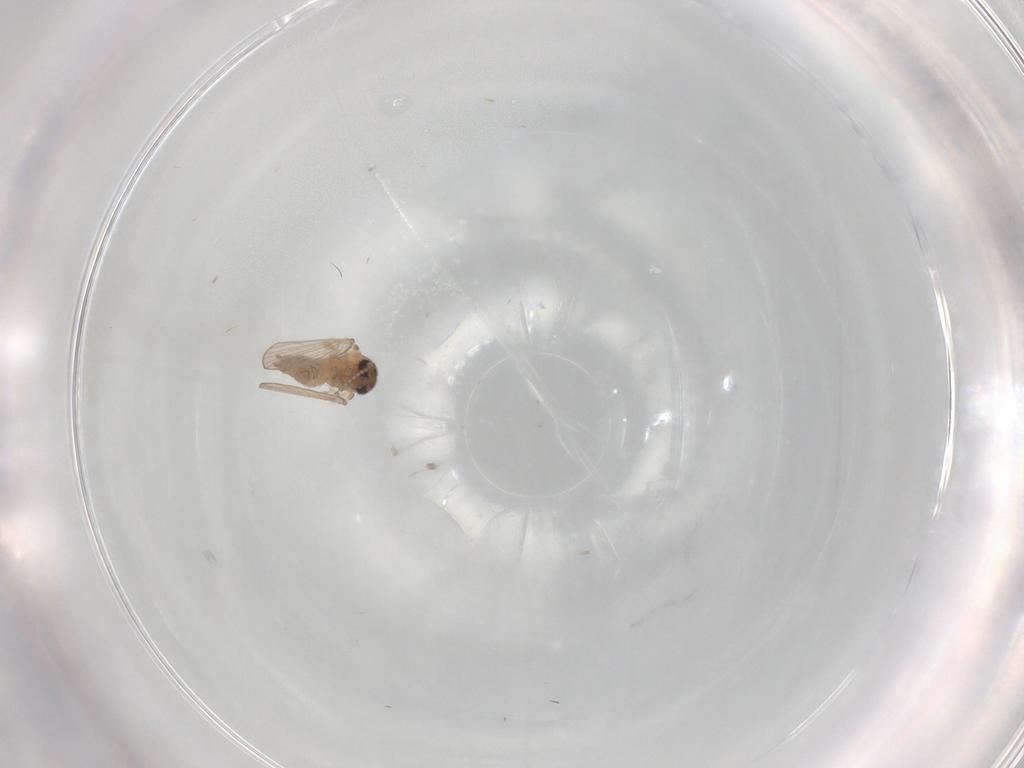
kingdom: Animalia
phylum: Arthropoda
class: Insecta
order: Diptera
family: Psychodidae
